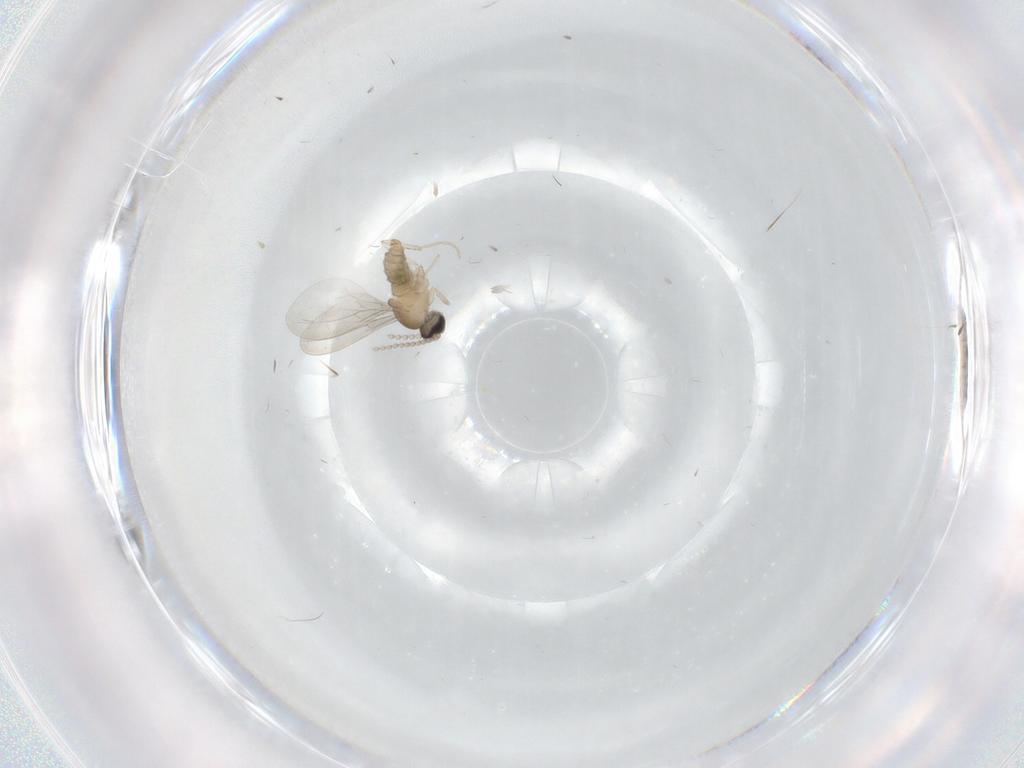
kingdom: Animalia
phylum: Arthropoda
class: Insecta
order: Diptera
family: Cecidomyiidae
